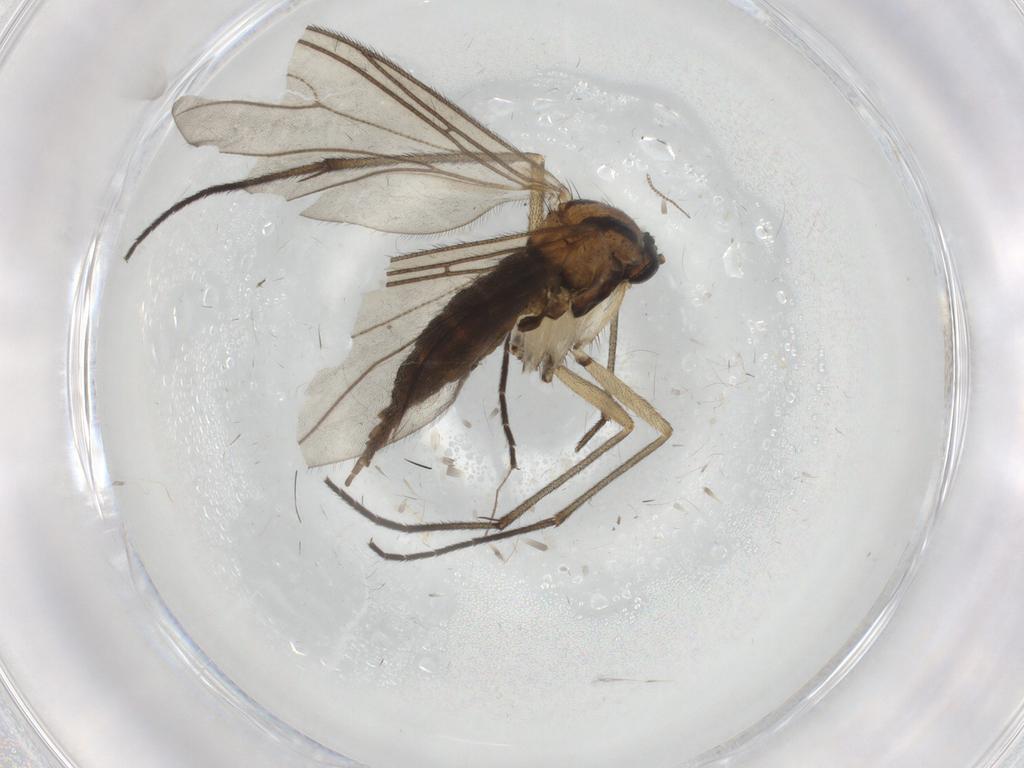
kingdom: Animalia
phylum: Arthropoda
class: Insecta
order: Diptera
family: Sciaridae
